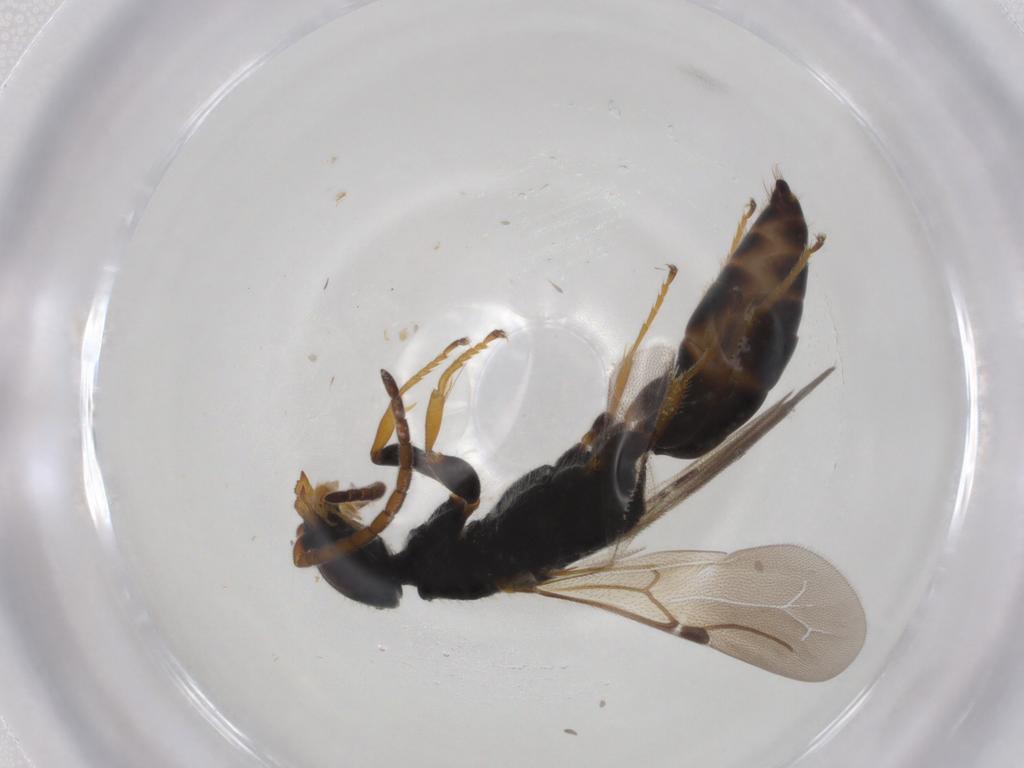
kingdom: Animalia
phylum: Arthropoda
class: Insecta
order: Hymenoptera
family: Bethylidae
